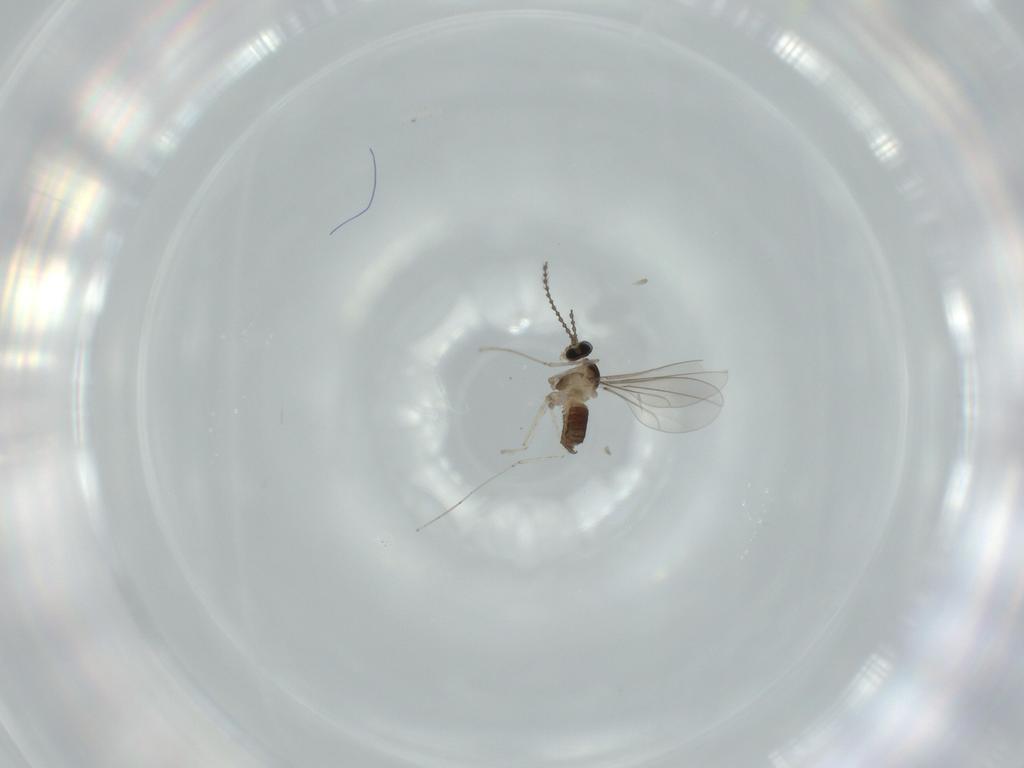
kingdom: Animalia
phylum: Arthropoda
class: Insecta
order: Diptera
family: Cecidomyiidae
